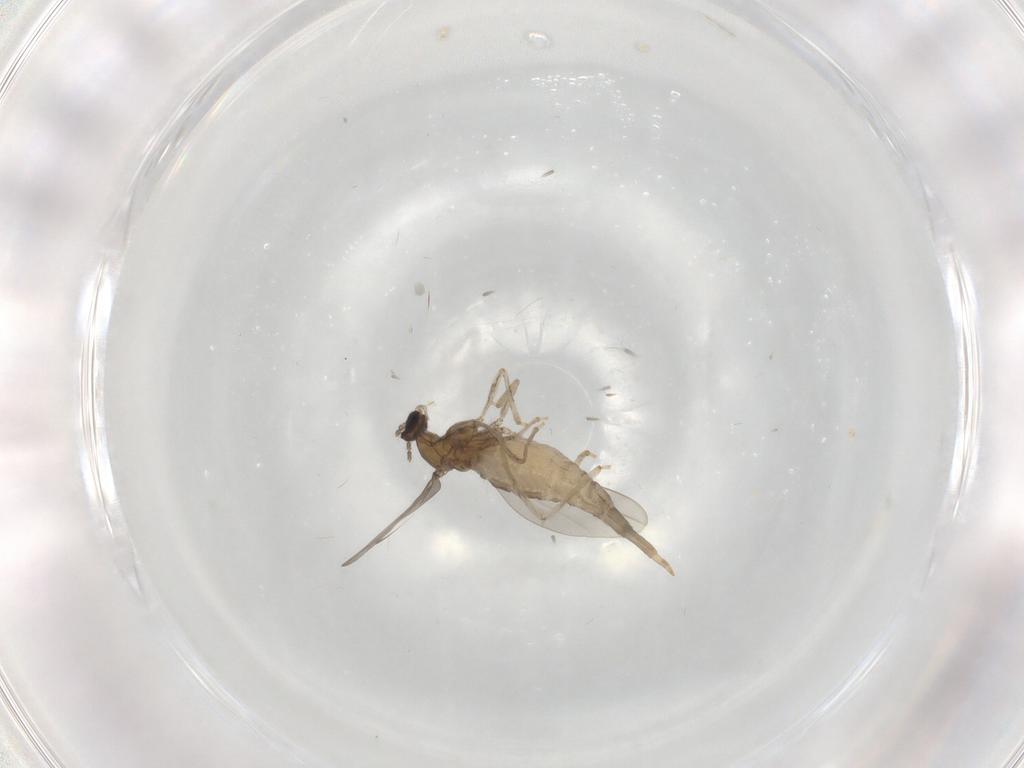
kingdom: Animalia
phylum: Arthropoda
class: Insecta
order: Diptera
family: Cecidomyiidae
